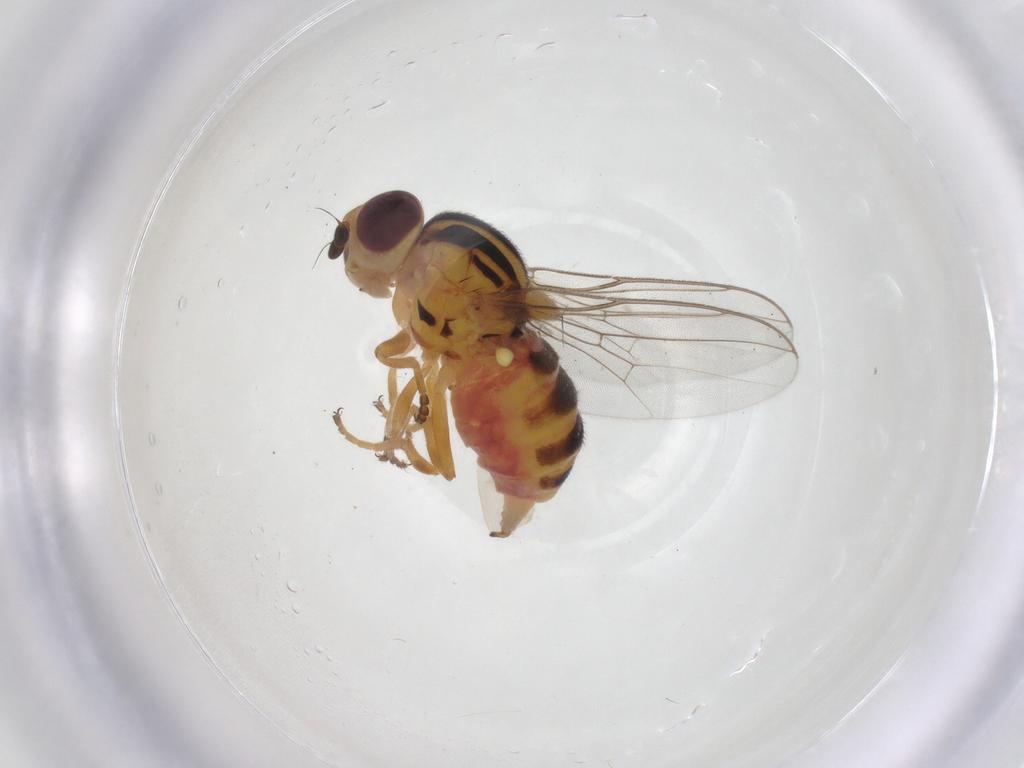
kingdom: Animalia
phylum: Arthropoda
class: Insecta
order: Diptera
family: Chloropidae
